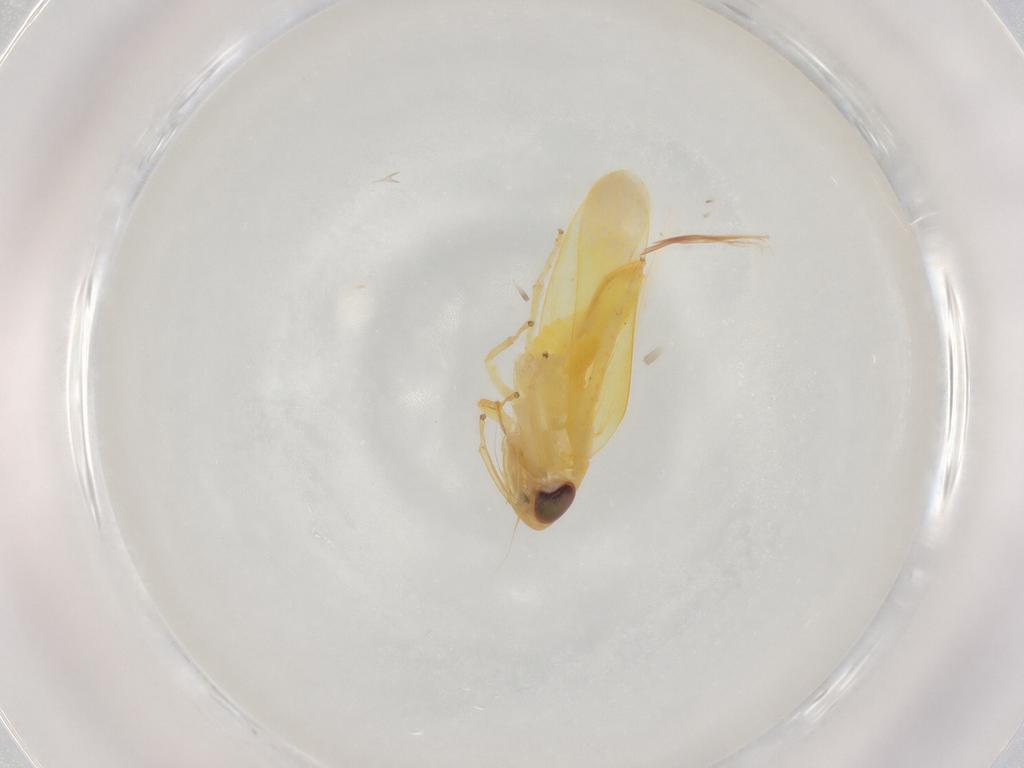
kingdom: Animalia
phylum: Arthropoda
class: Insecta
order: Hemiptera
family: Cicadellidae
